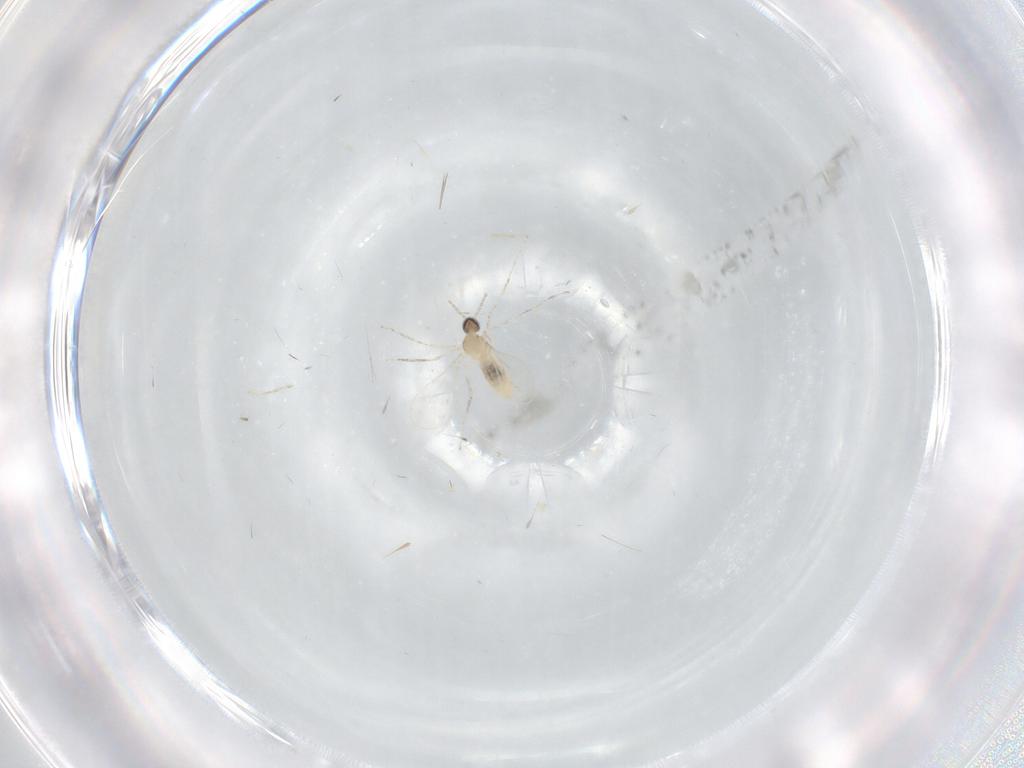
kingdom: Animalia
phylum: Arthropoda
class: Insecta
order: Diptera
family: Cecidomyiidae
